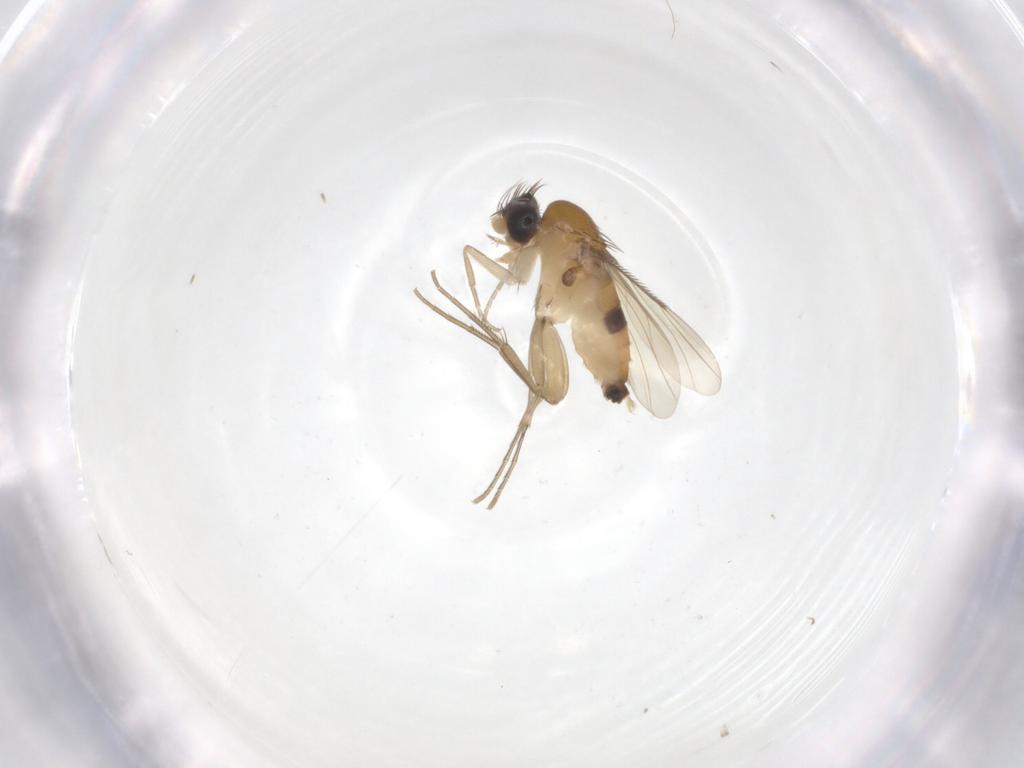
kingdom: Animalia
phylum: Arthropoda
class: Insecta
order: Diptera
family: Phoridae
